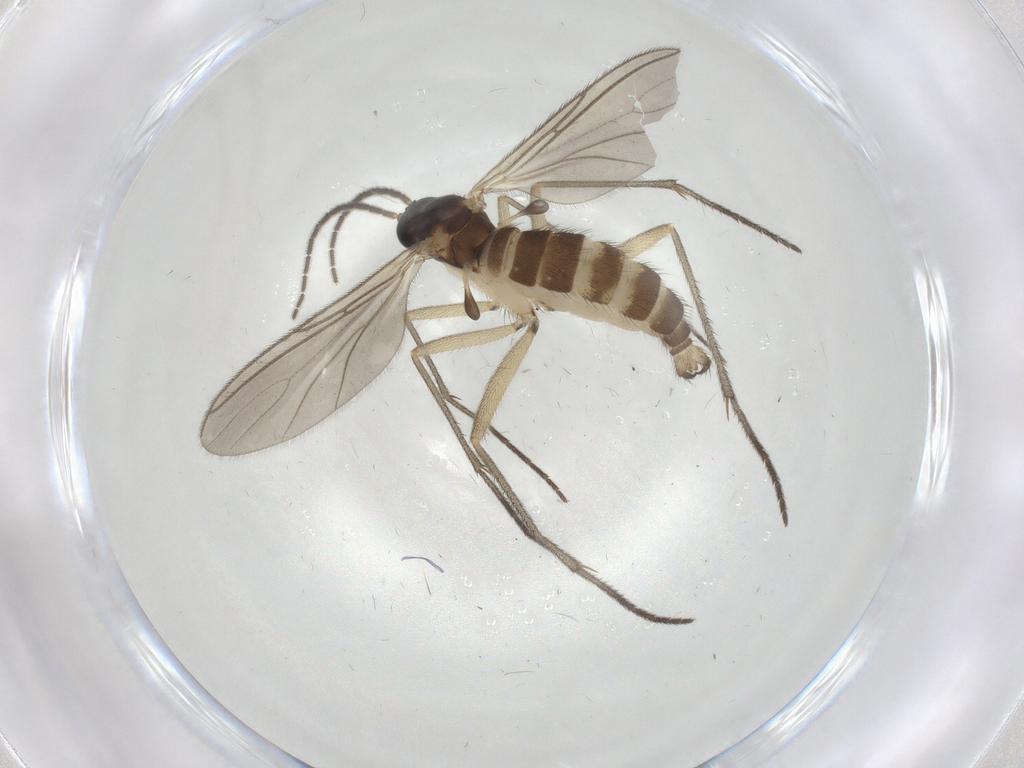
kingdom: Animalia
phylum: Arthropoda
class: Insecta
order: Diptera
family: Sciaridae
